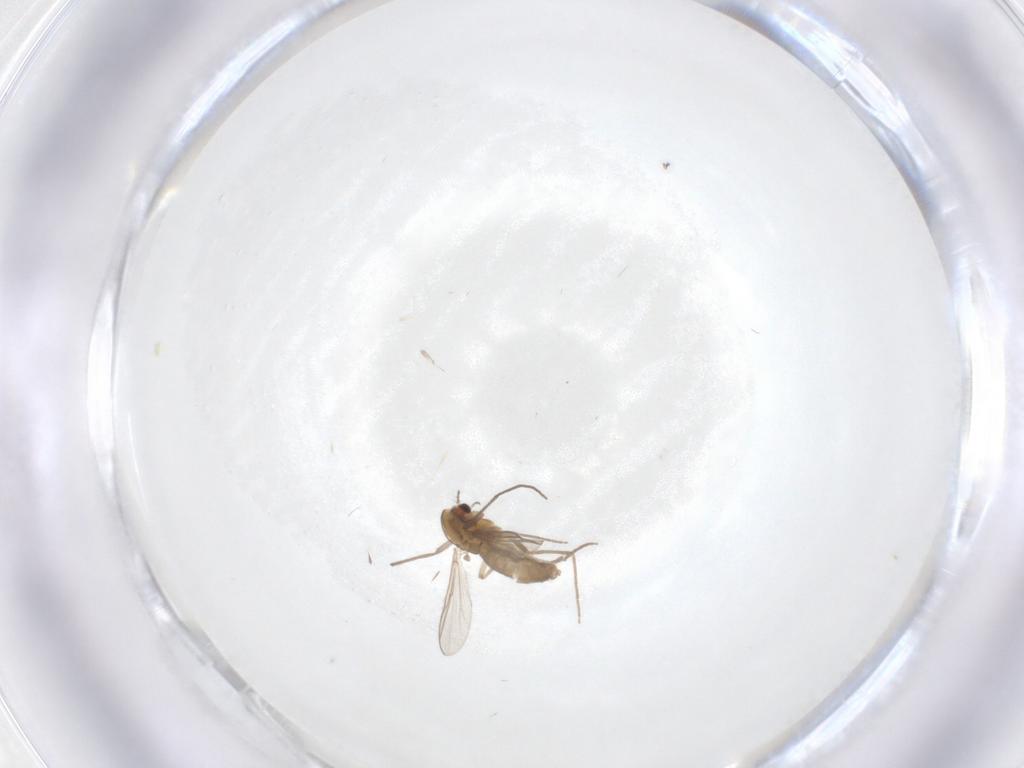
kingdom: Animalia
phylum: Arthropoda
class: Insecta
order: Diptera
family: Chironomidae
